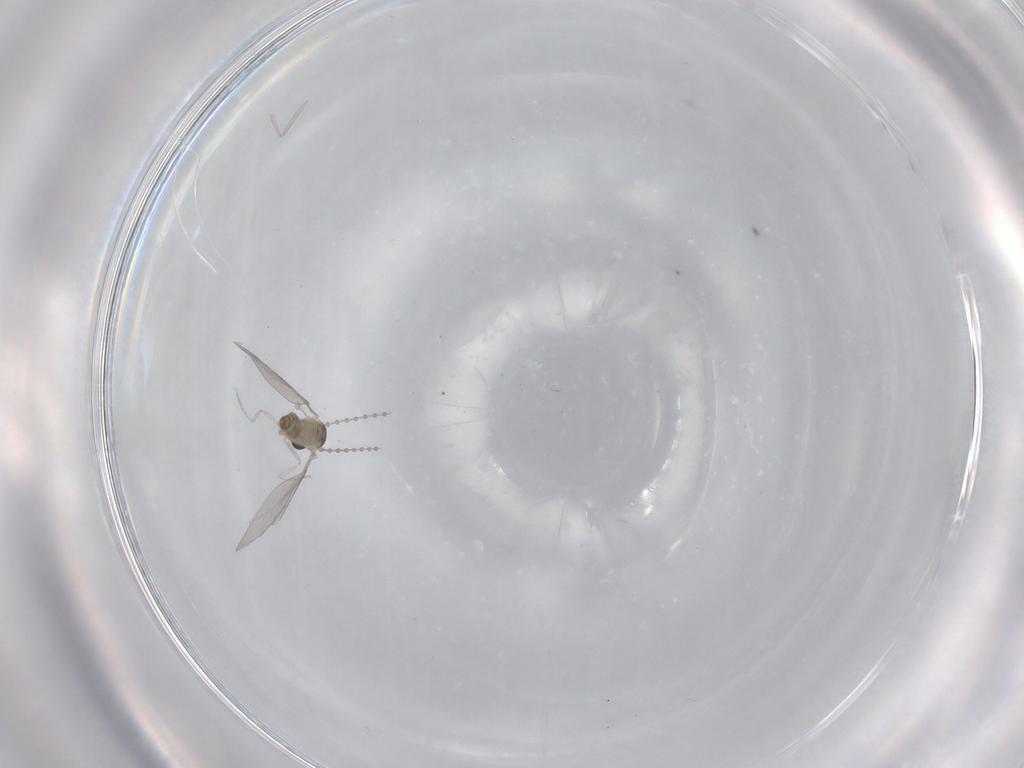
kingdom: Animalia
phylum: Arthropoda
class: Insecta
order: Diptera
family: Cecidomyiidae
